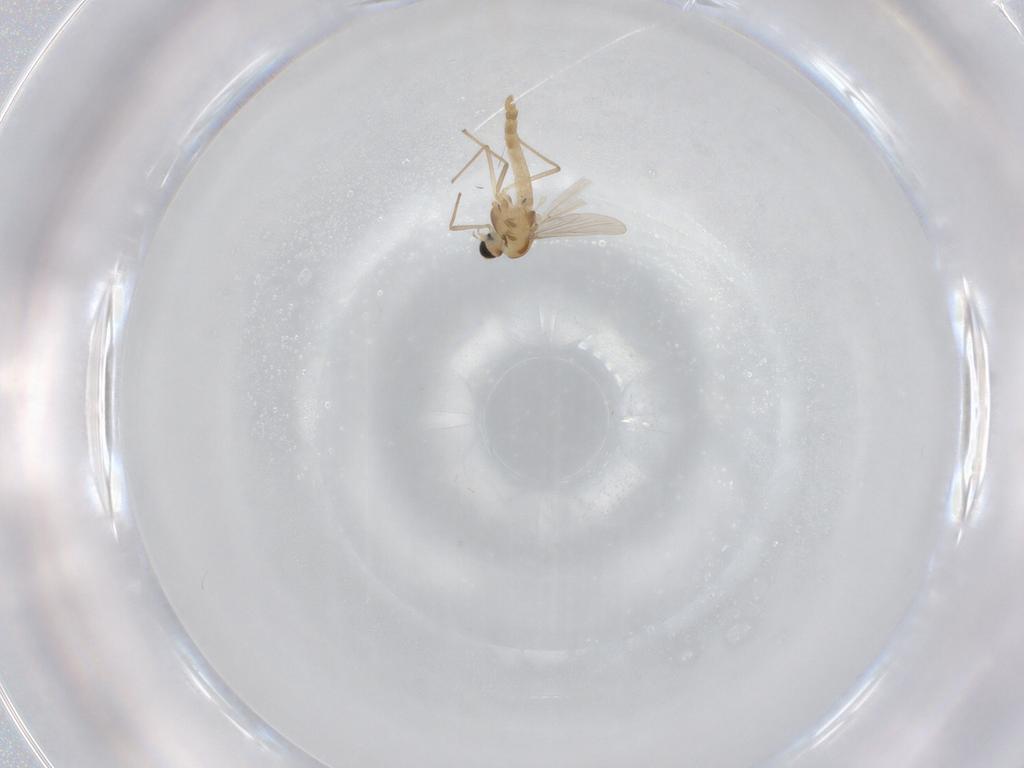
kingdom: Animalia
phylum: Arthropoda
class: Insecta
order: Diptera
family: Chironomidae
